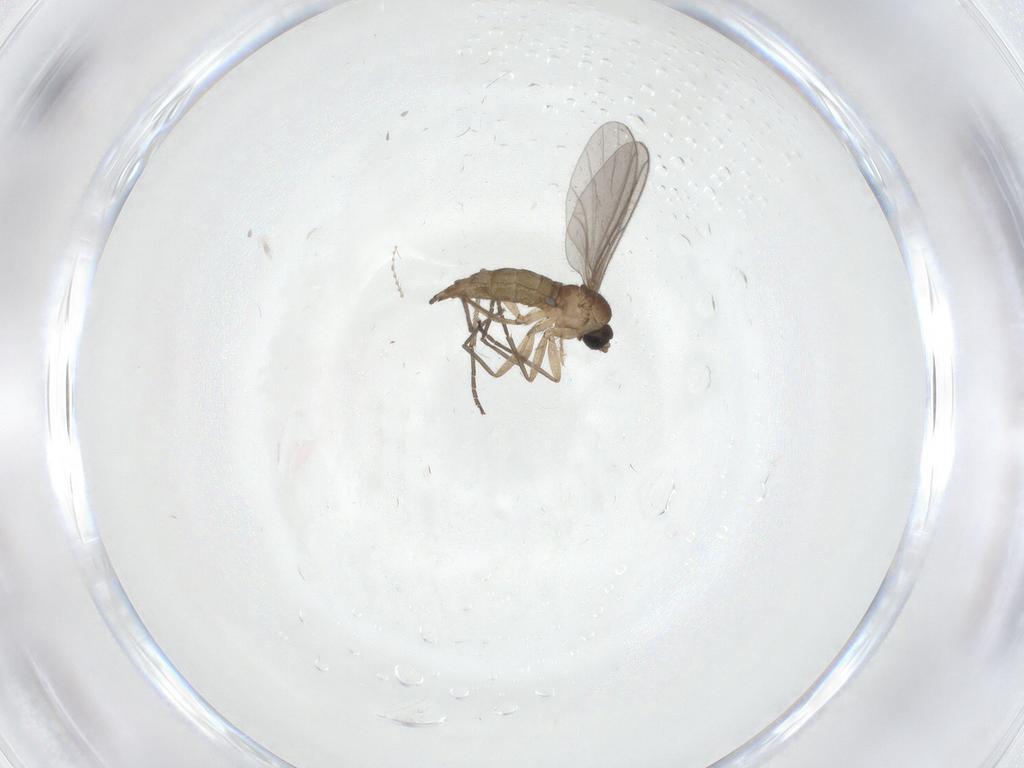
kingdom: Animalia
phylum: Arthropoda
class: Insecta
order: Diptera
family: Sciaridae
